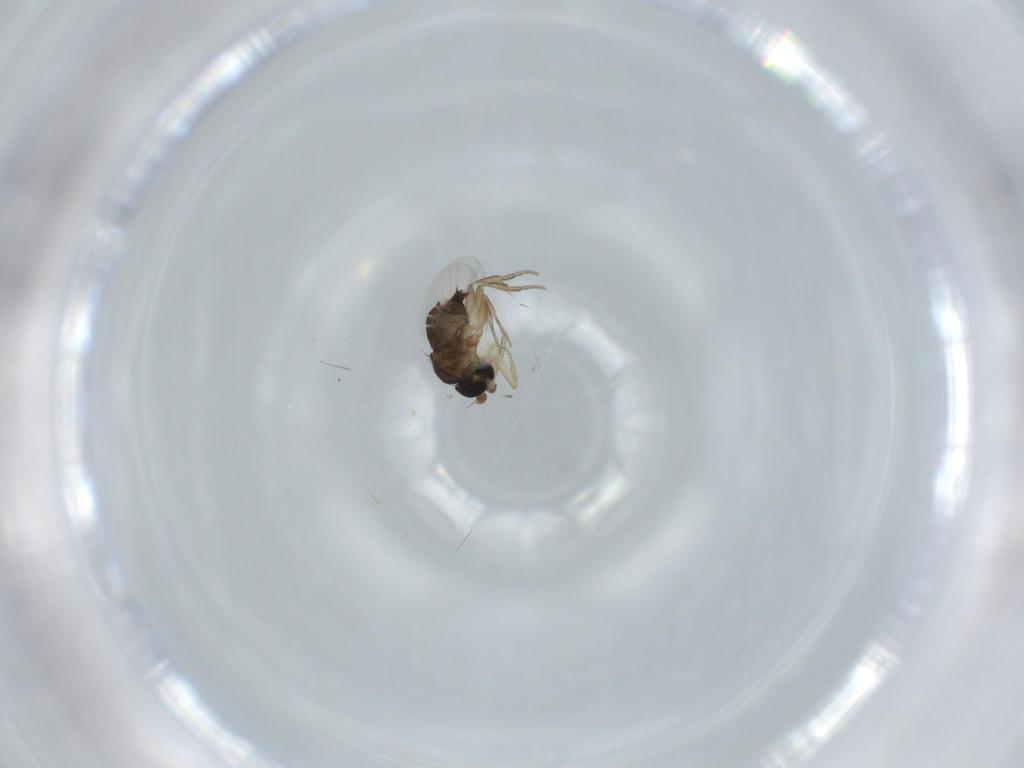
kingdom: Animalia
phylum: Arthropoda
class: Insecta
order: Diptera
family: Phoridae
